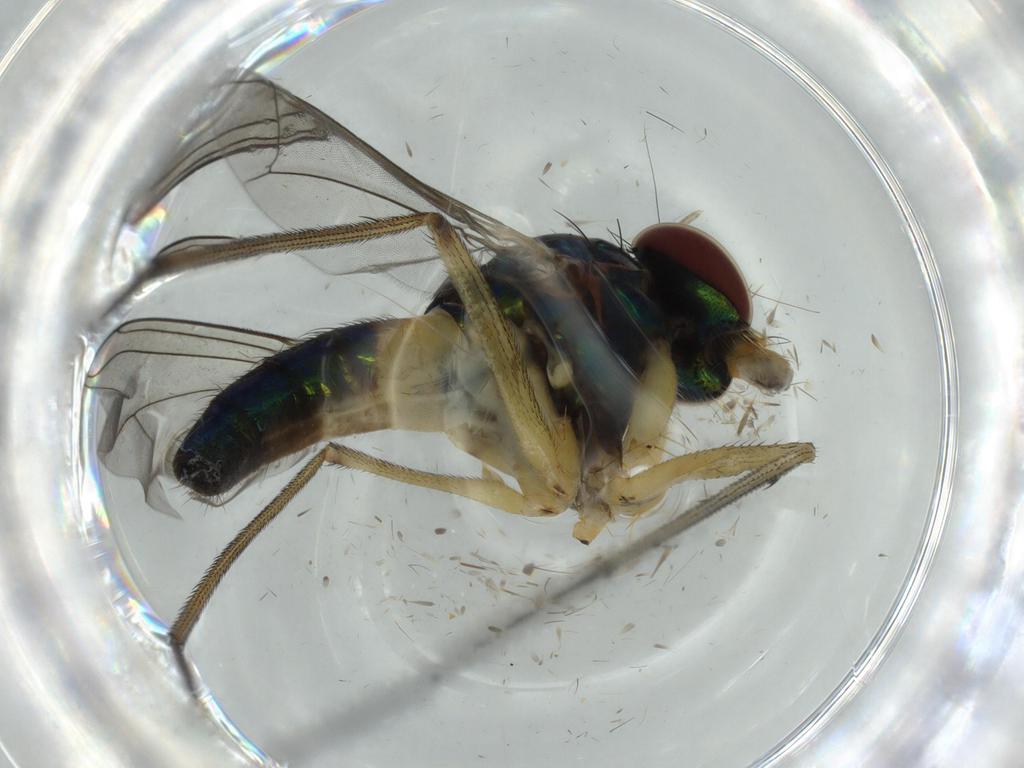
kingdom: Animalia
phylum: Arthropoda
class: Insecta
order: Diptera
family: Dolichopodidae
